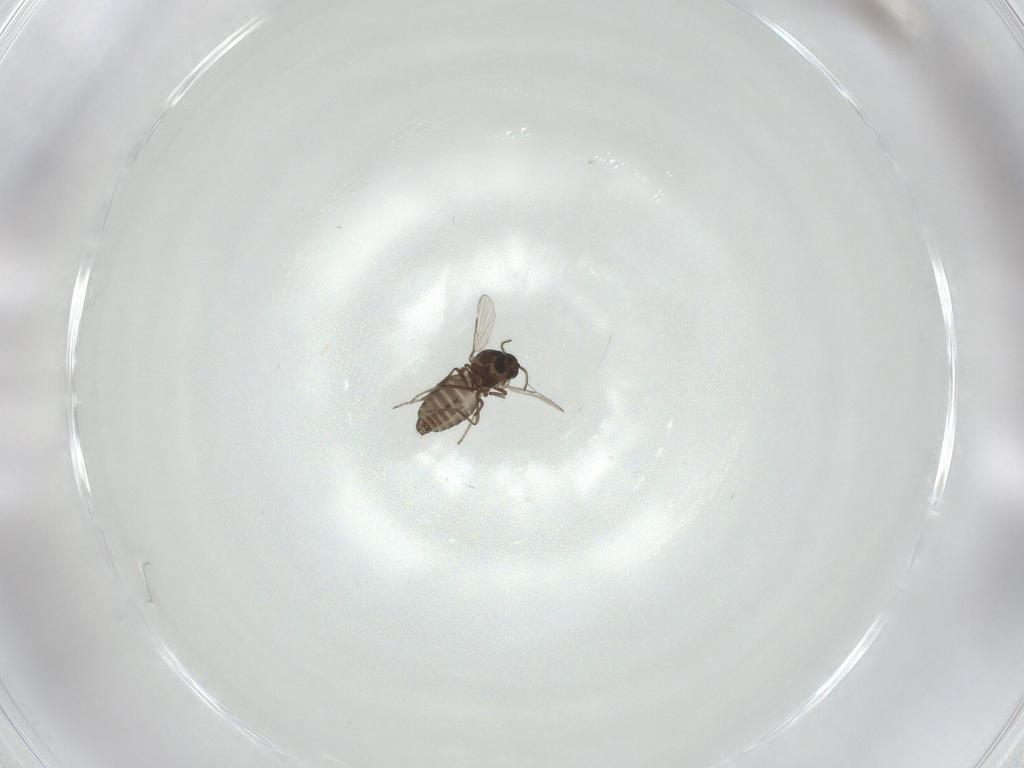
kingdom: Animalia
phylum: Arthropoda
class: Insecta
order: Diptera
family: Ceratopogonidae
